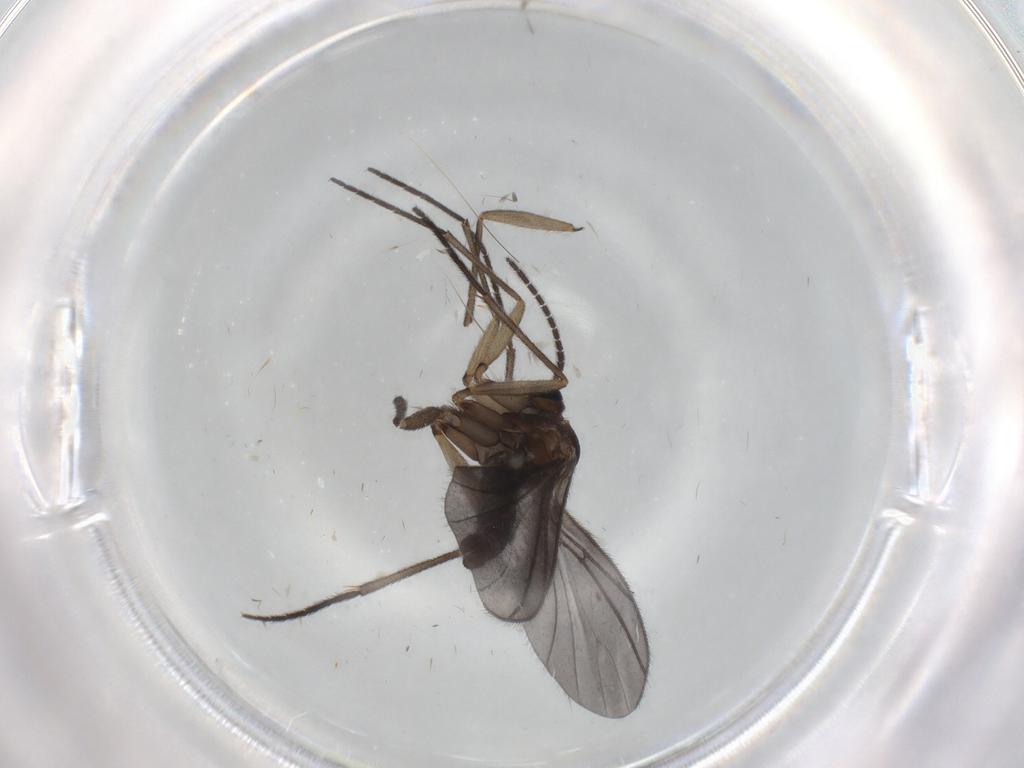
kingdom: Animalia
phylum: Arthropoda
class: Insecta
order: Diptera
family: Sciaridae
